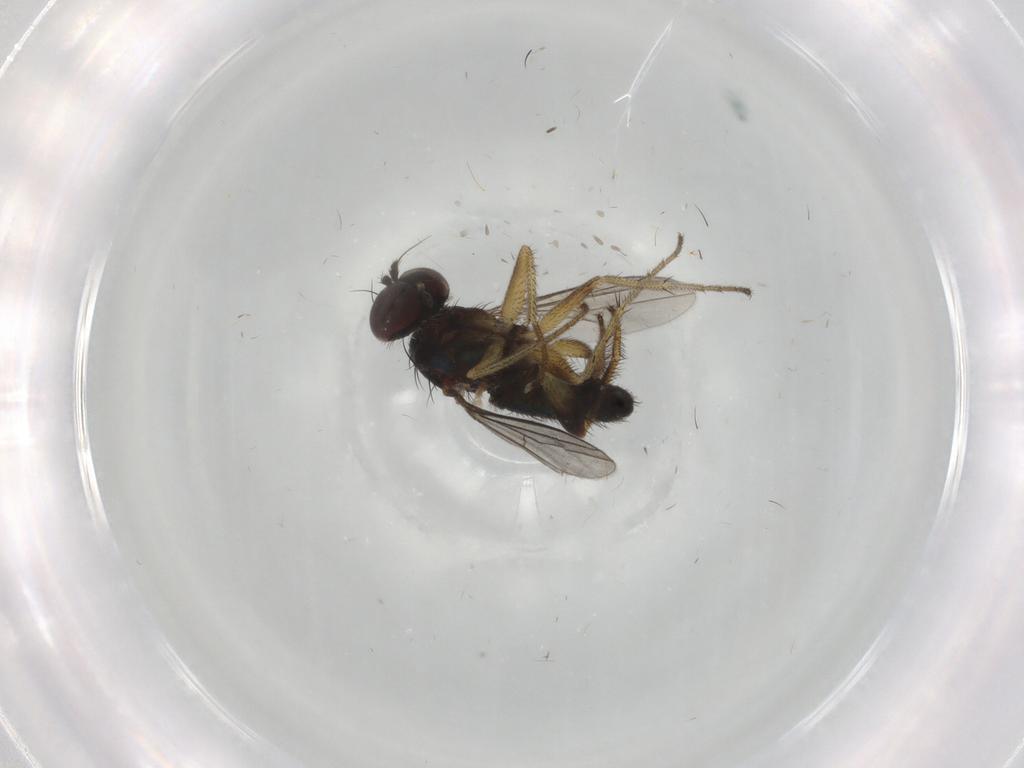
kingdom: Animalia
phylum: Arthropoda
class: Insecta
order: Diptera
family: Dolichopodidae
